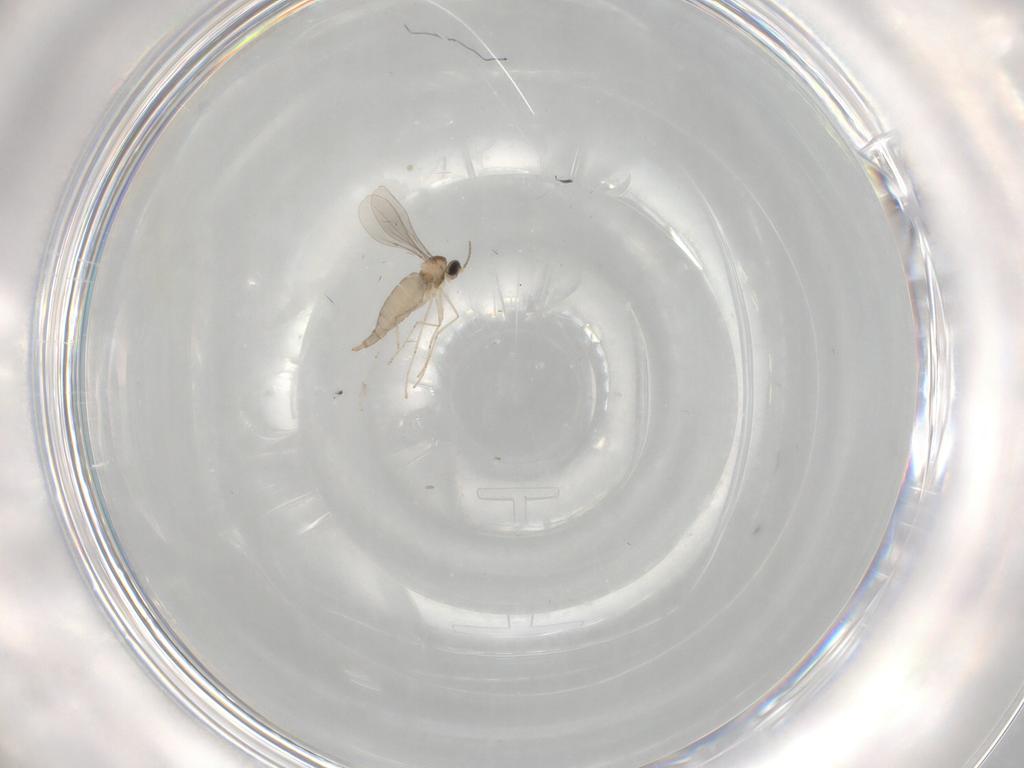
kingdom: Animalia
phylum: Arthropoda
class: Insecta
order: Diptera
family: Cecidomyiidae
